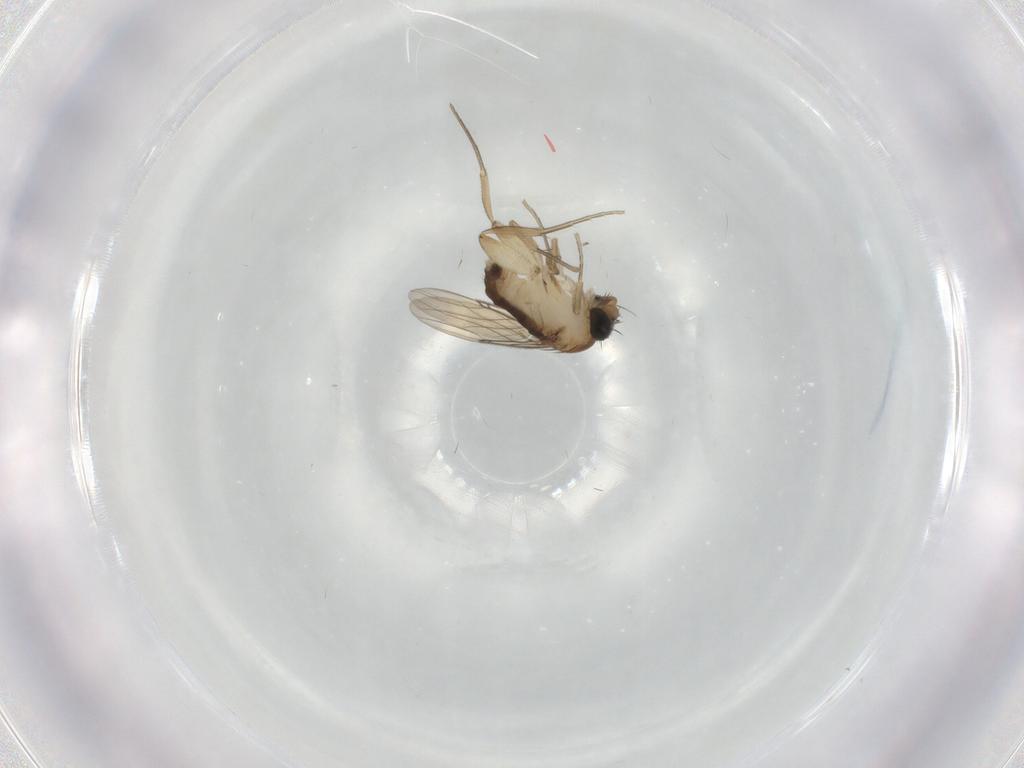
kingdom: Animalia
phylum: Arthropoda
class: Insecta
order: Diptera
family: Phoridae
